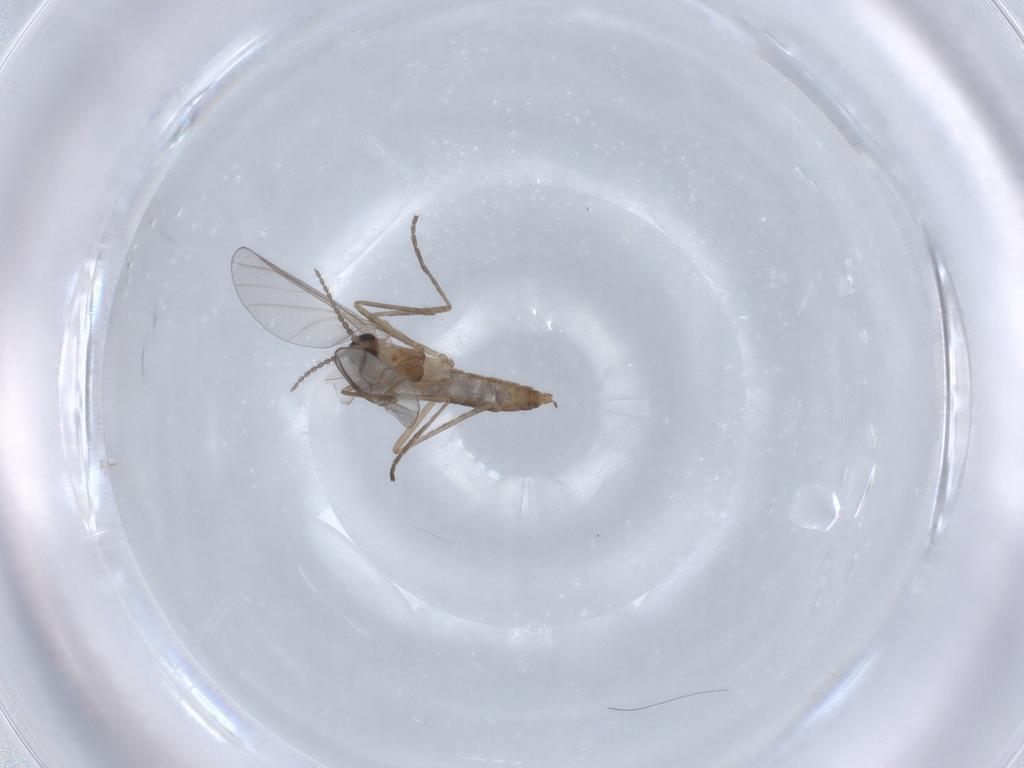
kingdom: Animalia
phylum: Arthropoda
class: Insecta
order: Diptera
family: Cecidomyiidae
